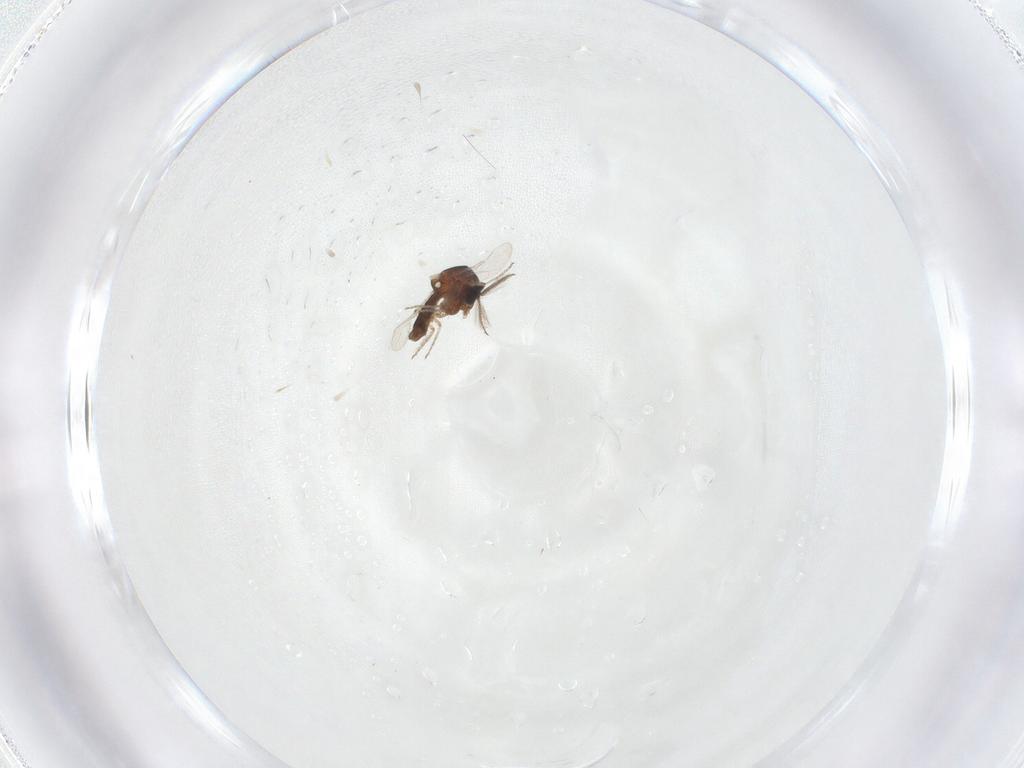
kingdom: Animalia
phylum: Arthropoda
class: Insecta
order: Diptera
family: Ceratopogonidae
